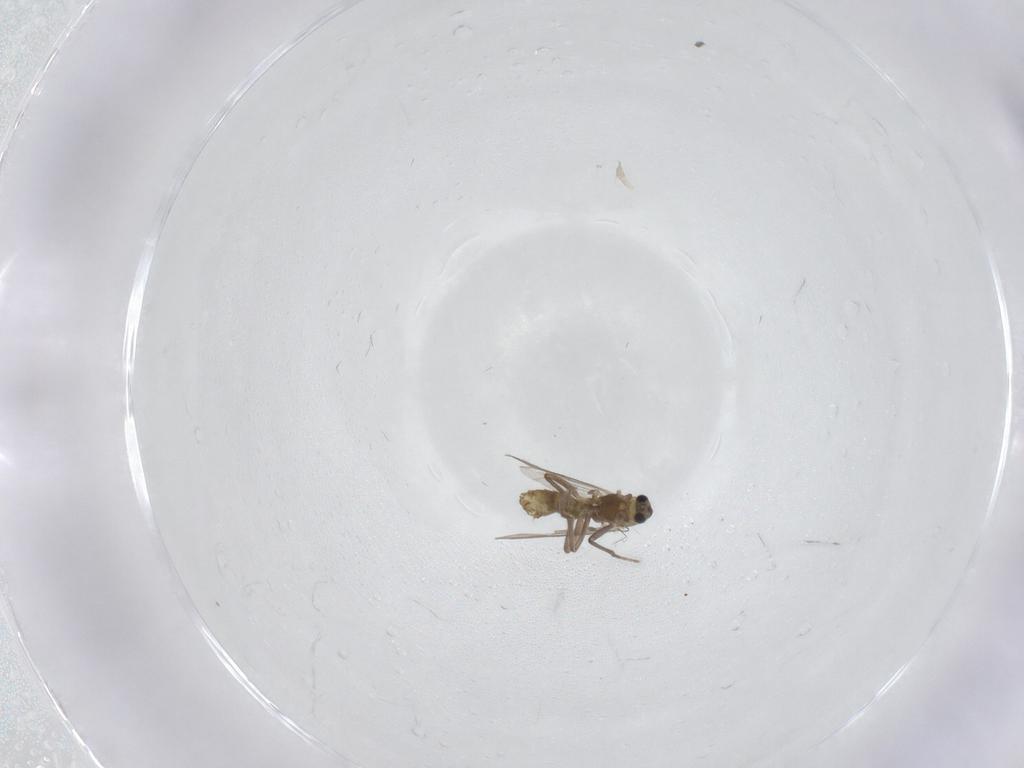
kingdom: Animalia
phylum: Arthropoda
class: Insecta
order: Diptera
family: Chironomidae
